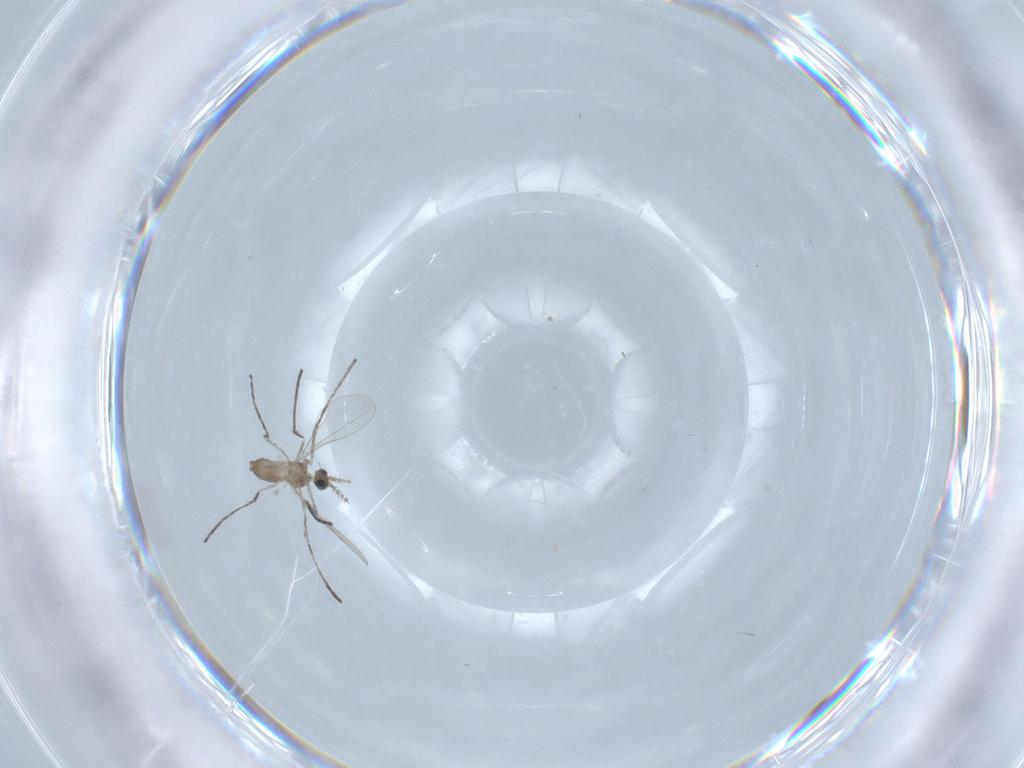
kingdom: Animalia
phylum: Arthropoda
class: Insecta
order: Diptera
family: Cecidomyiidae
